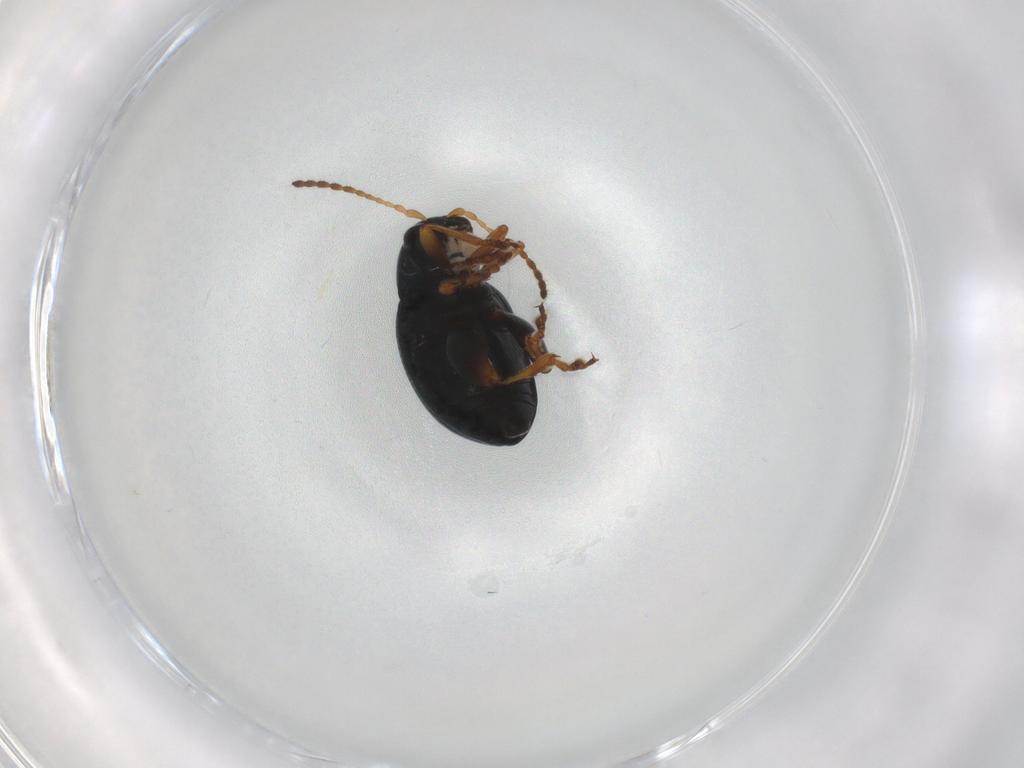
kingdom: Animalia
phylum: Arthropoda
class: Insecta
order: Coleoptera
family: Chrysomelidae
